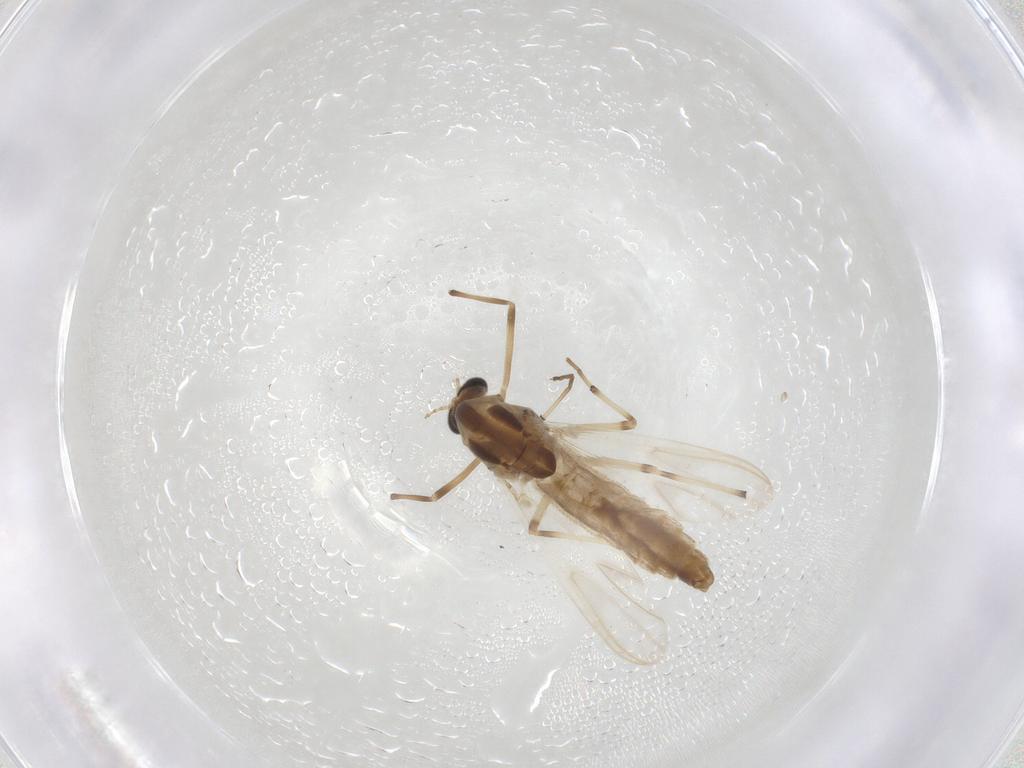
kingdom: Animalia
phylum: Arthropoda
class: Insecta
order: Diptera
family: Chironomidae
